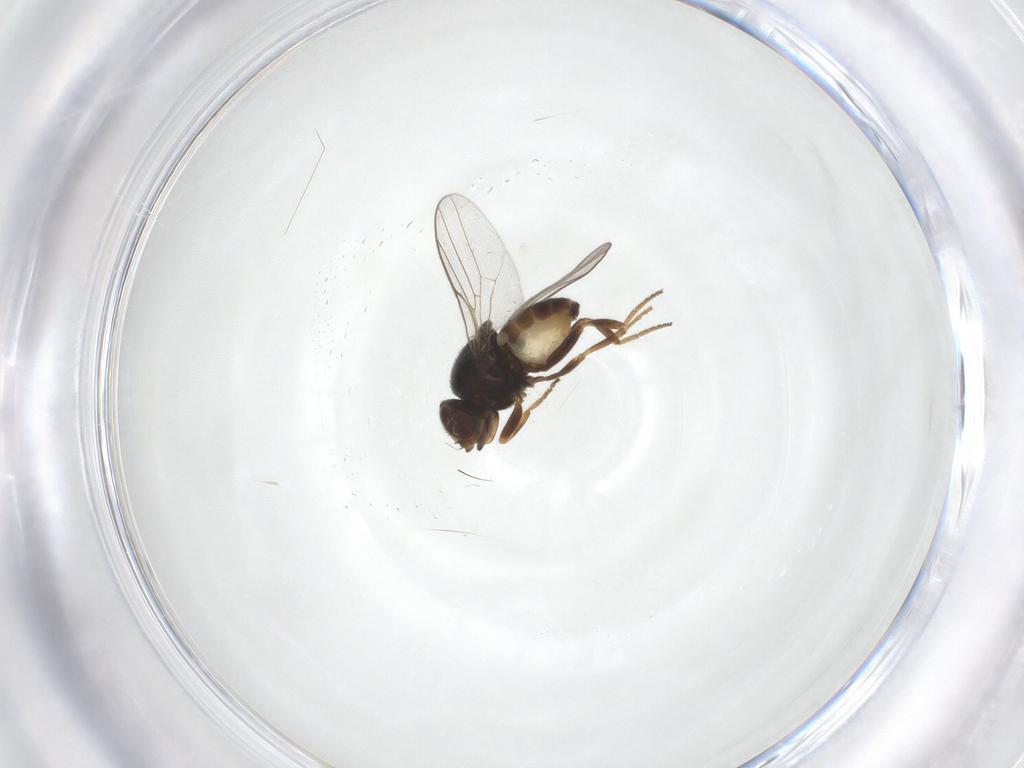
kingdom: Animalia
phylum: Arthropoda
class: Insecta
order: Diptera
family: Chloropidae
